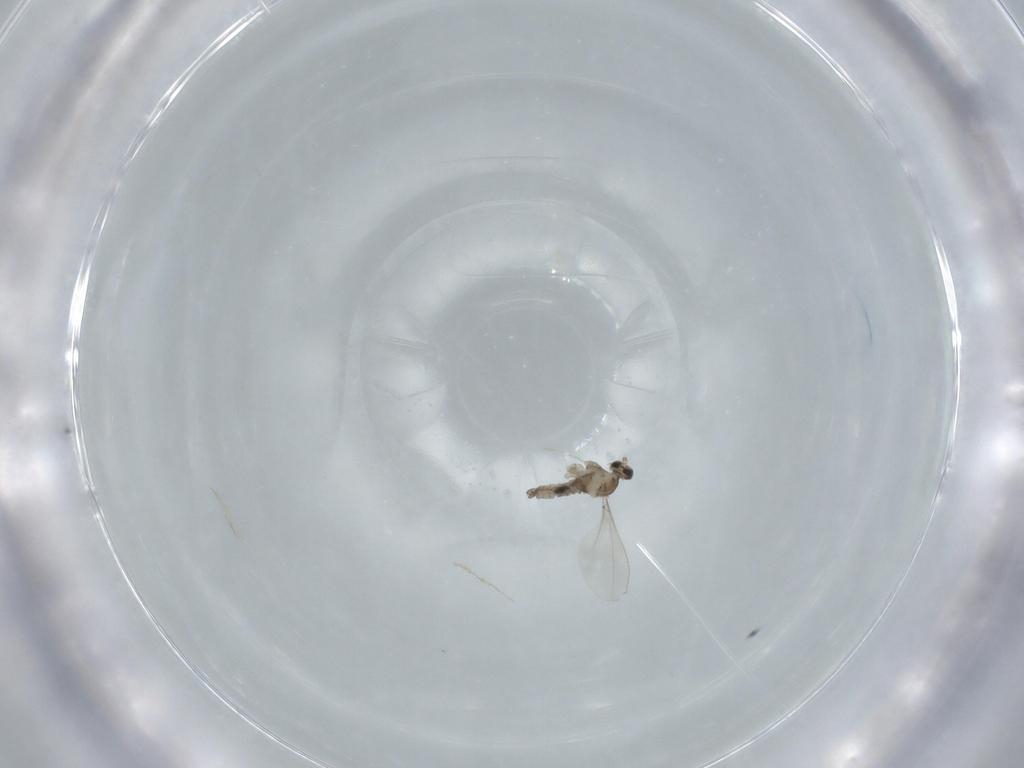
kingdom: Animalia
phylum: Arthropoda
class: Insecta
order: Diptera
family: Cecidomyiidae
